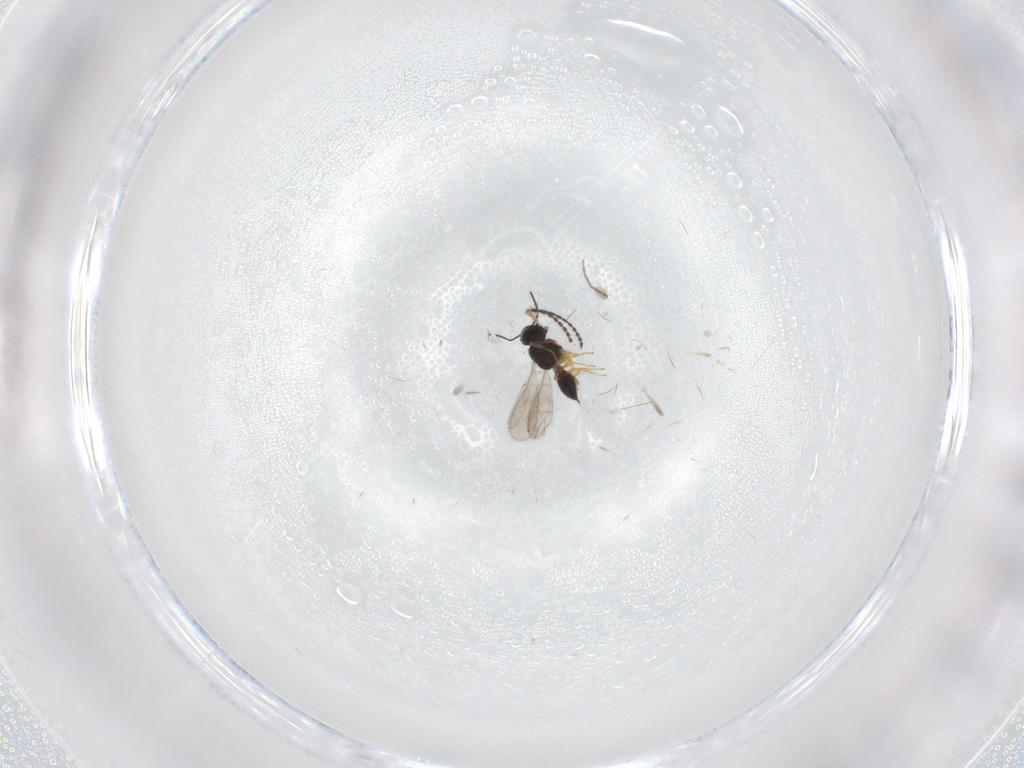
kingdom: Animalia
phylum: Arthropoda
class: Insecta
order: Hymenoptera
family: Scelionidae
